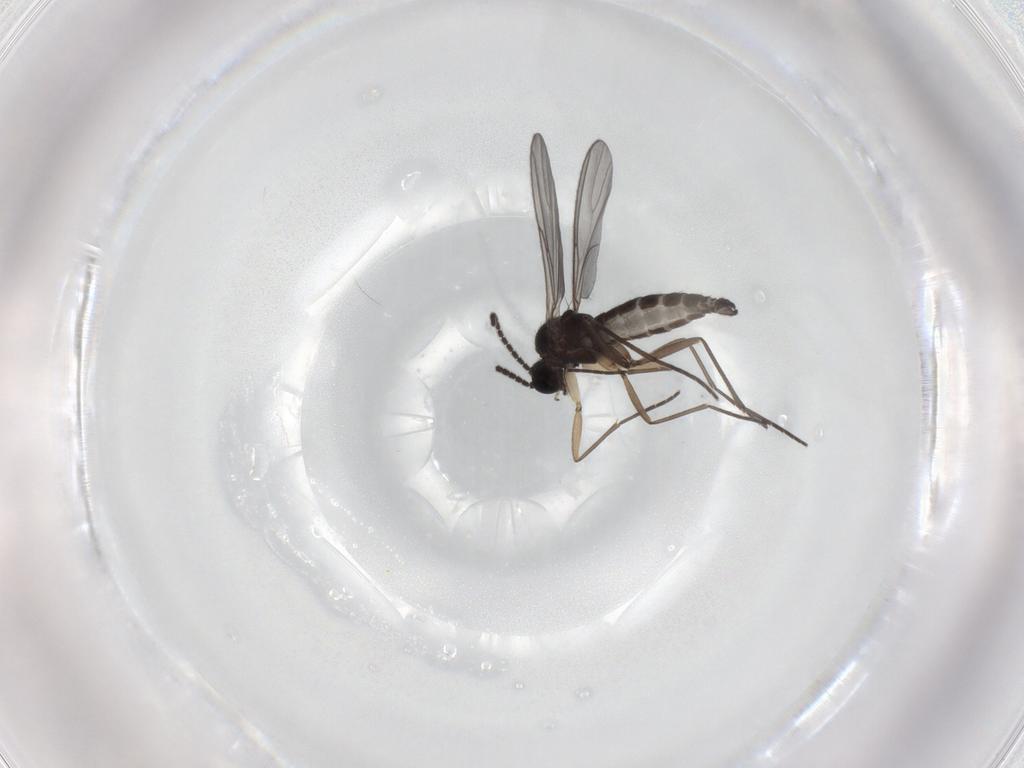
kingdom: Animalia
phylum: Arthropoda
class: Insecta
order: Diptera
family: Sciaridae
